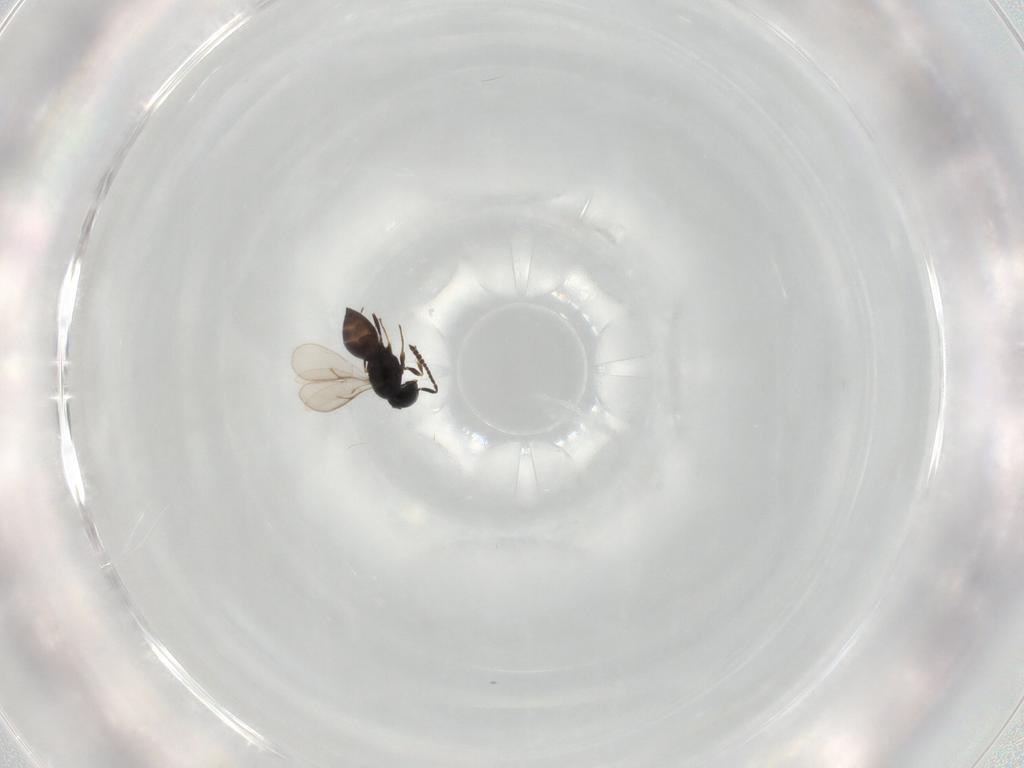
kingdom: Animalia
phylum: Arthropoda
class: Insecta
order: Hymenoptera
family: Scelionidae
